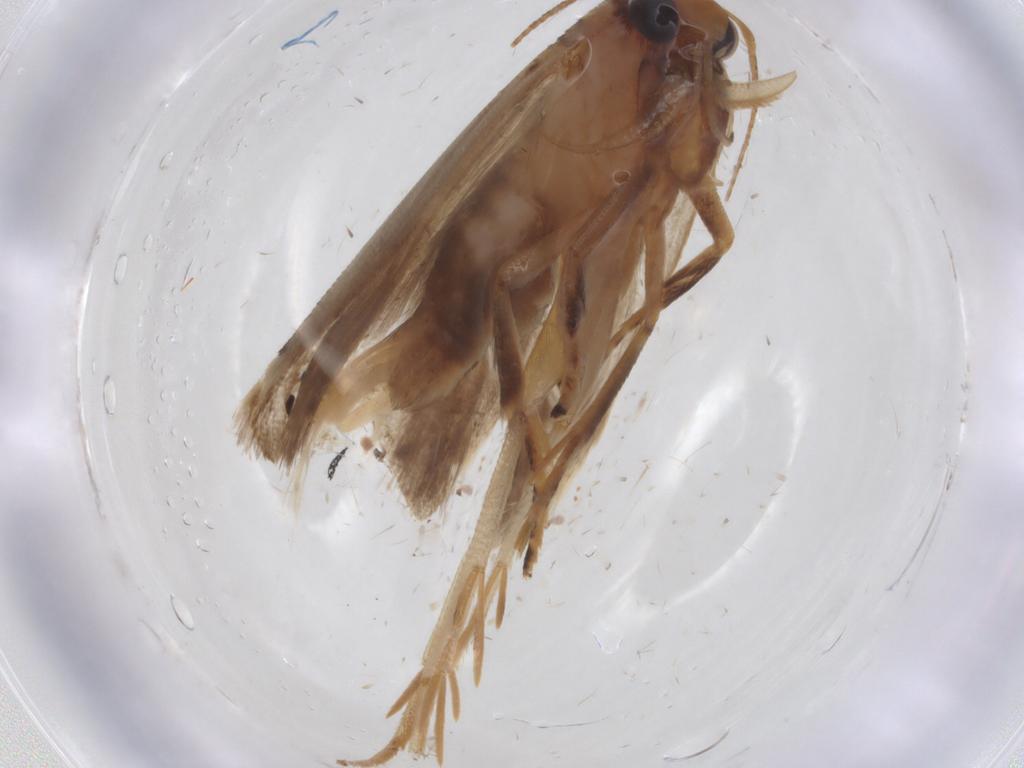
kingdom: Animalia
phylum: Arthropoda
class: Insecta
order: Lepidoptera
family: Gelechiidae
